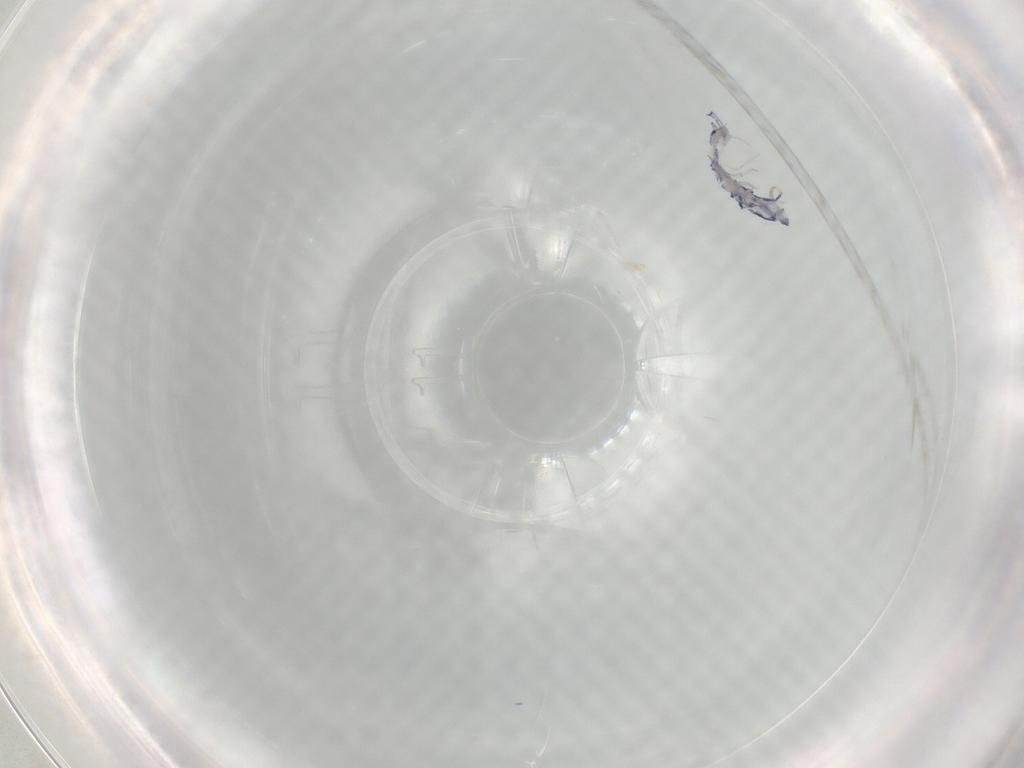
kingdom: Animalia
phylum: Arthropoda
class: Collembola
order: Entomobryomorpha
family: Entomobryidae
